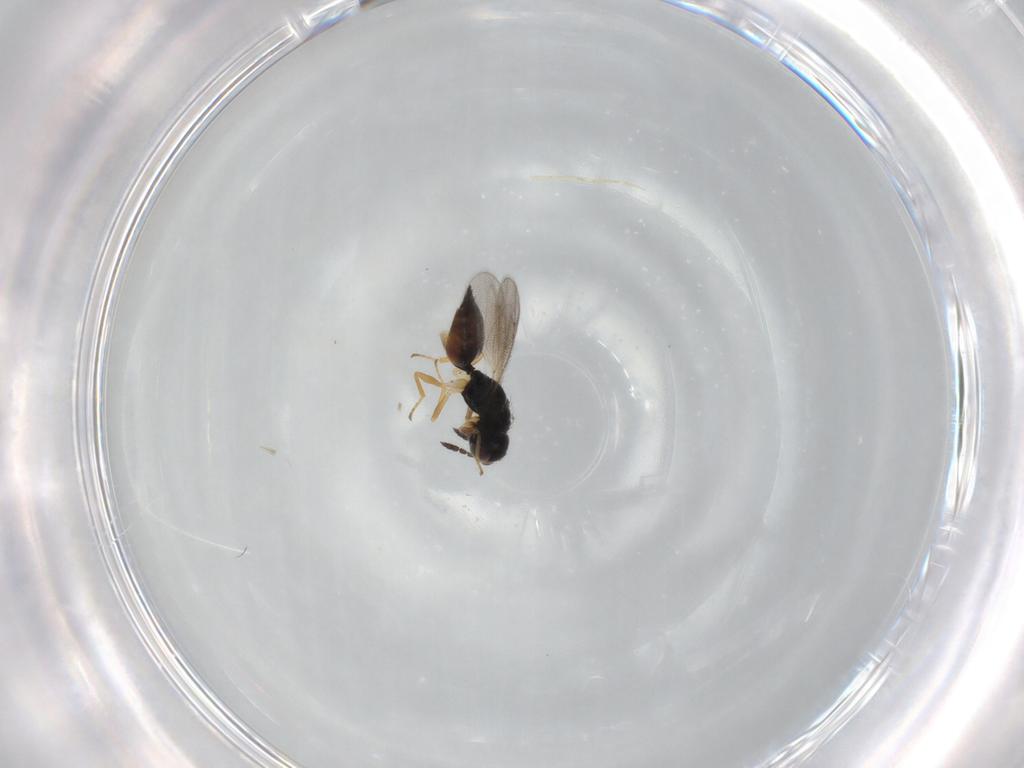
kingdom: Animalia
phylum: Arthropoda
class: Insecta
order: Hymenoptera
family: Eulophidae
